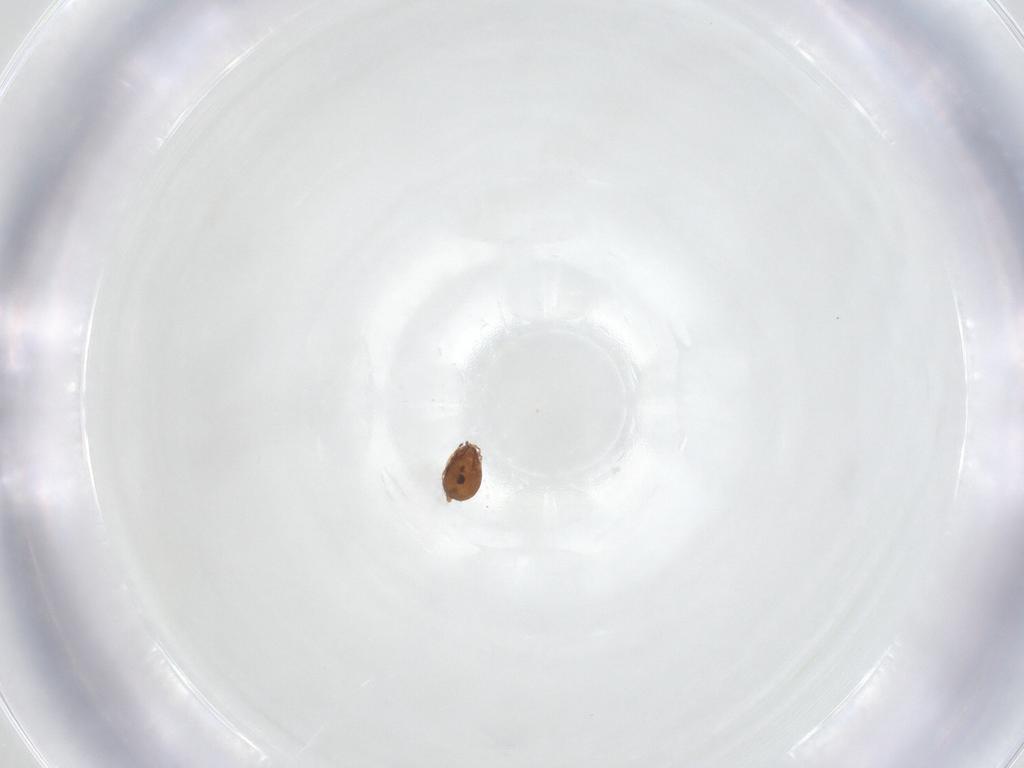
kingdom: Animalia
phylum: Arthropoda
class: Arachnida
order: Sarcoptiformes
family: Scheloribatidae
